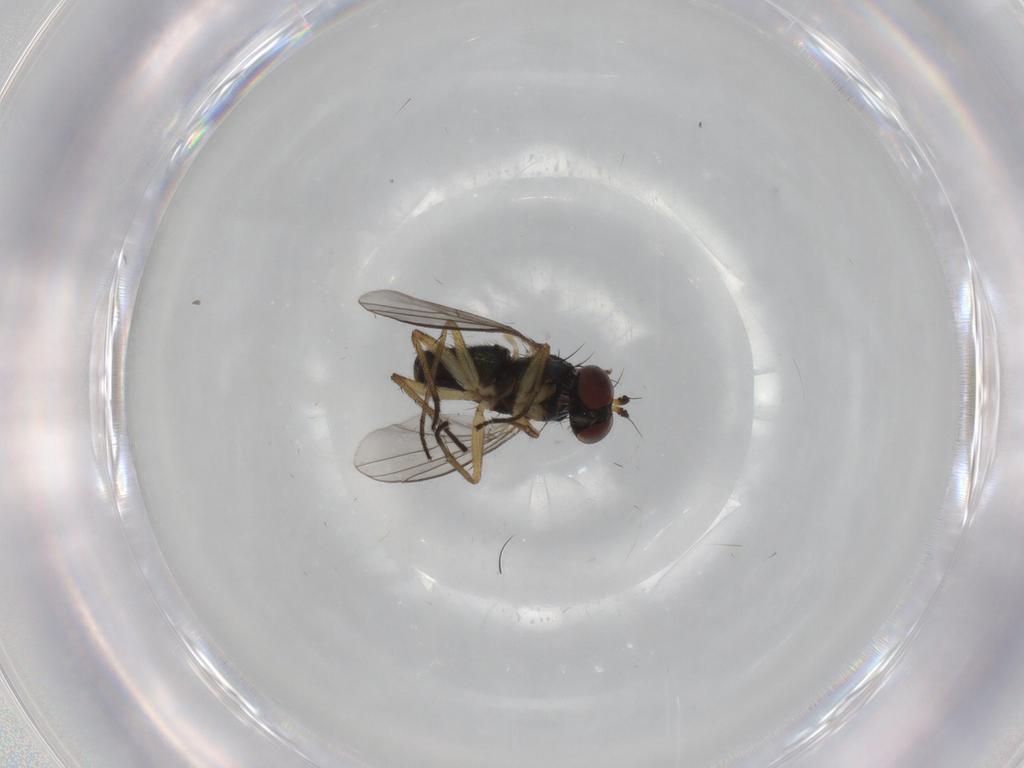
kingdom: Animalia
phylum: Arthropoda
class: Insecta
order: Diptera
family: Sciaridae
